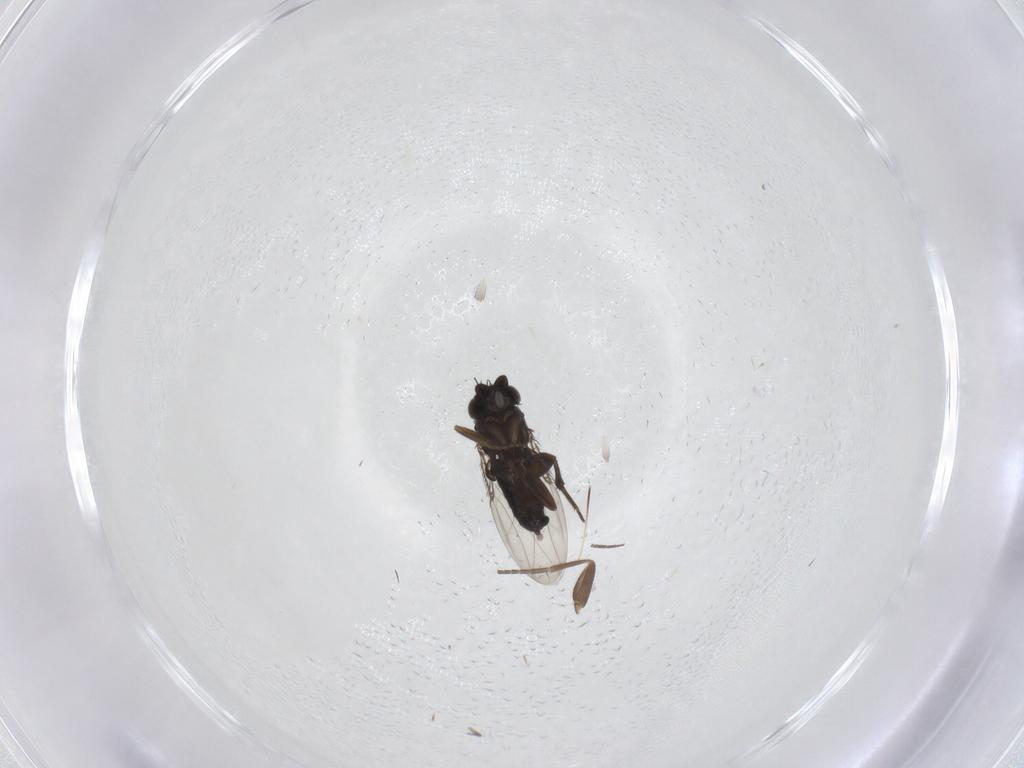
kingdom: Animalia
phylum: Arthropoda
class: Insecta
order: Diptera
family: Muscidae
